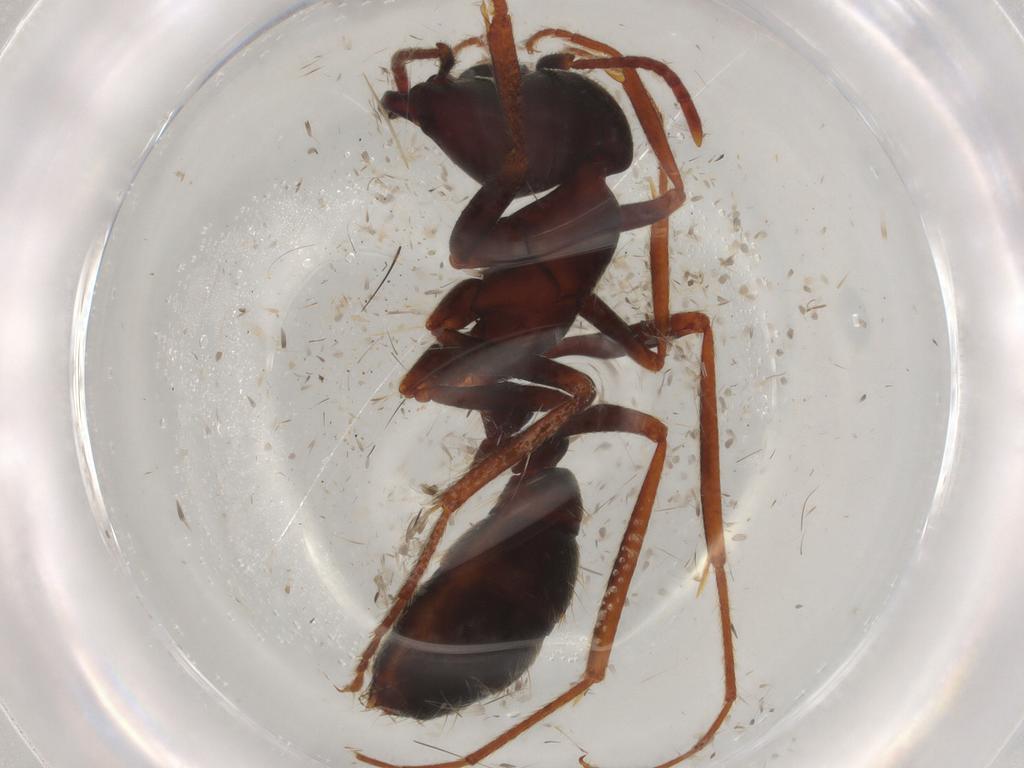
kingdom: Animalia
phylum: Arthropoda
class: Insecta
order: Hymenoptera
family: Formicidae
